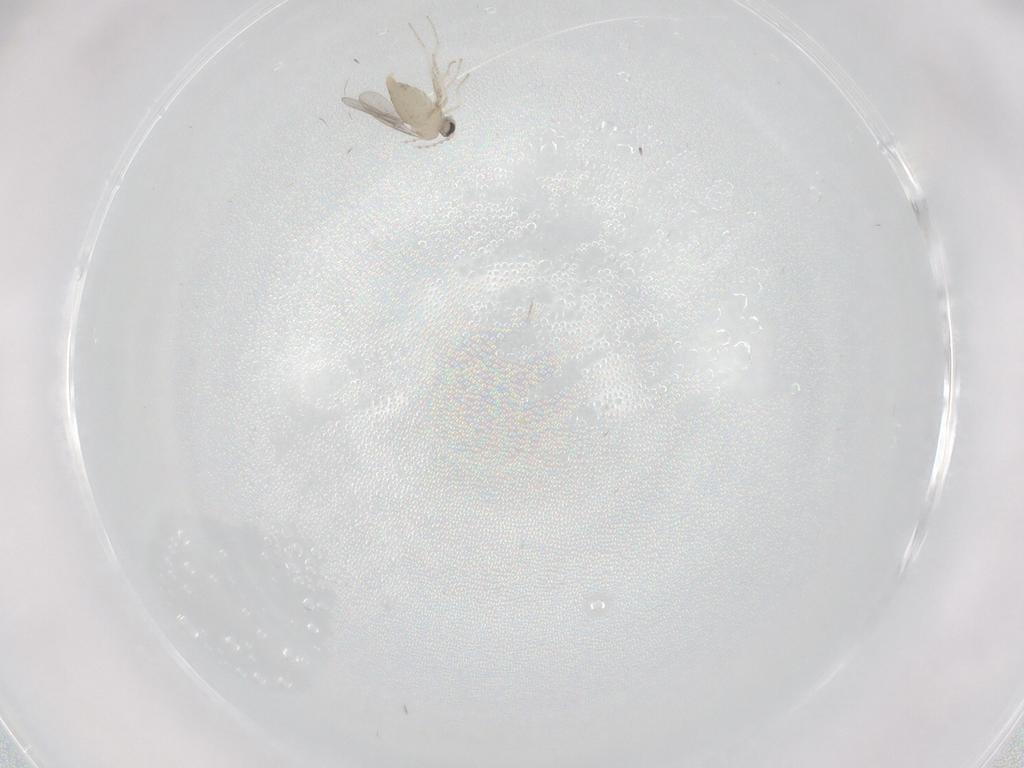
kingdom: Animalia
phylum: Arthropoda
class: Insecta
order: Diptera
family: Cecidomyiidae
